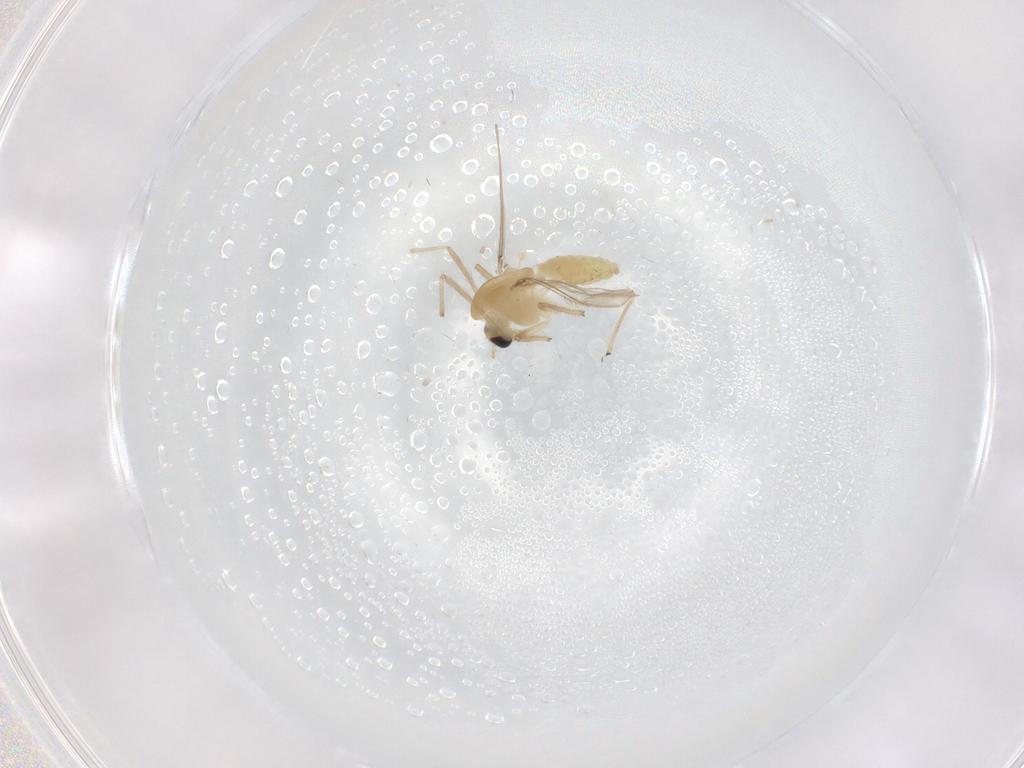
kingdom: Animalia
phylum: Arthropoda
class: Insecta
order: Diptera
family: Chironomidae
